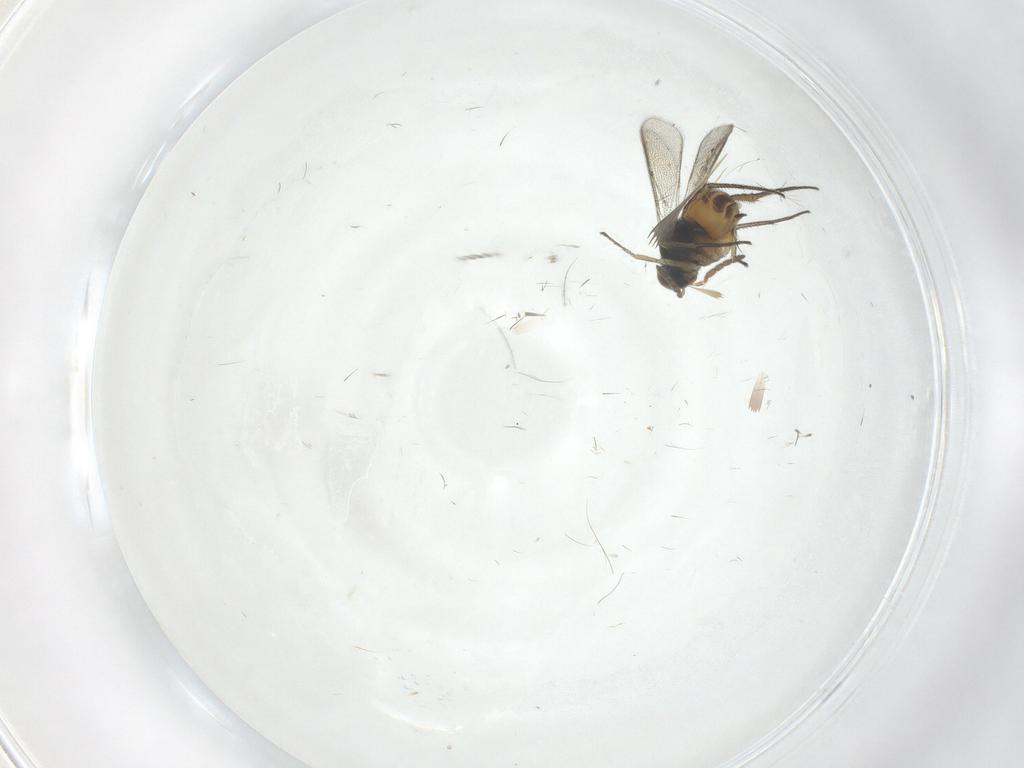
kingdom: Animalia
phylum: Arthropoda
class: Insecta
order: Hymenoptera
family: Eulophidae
